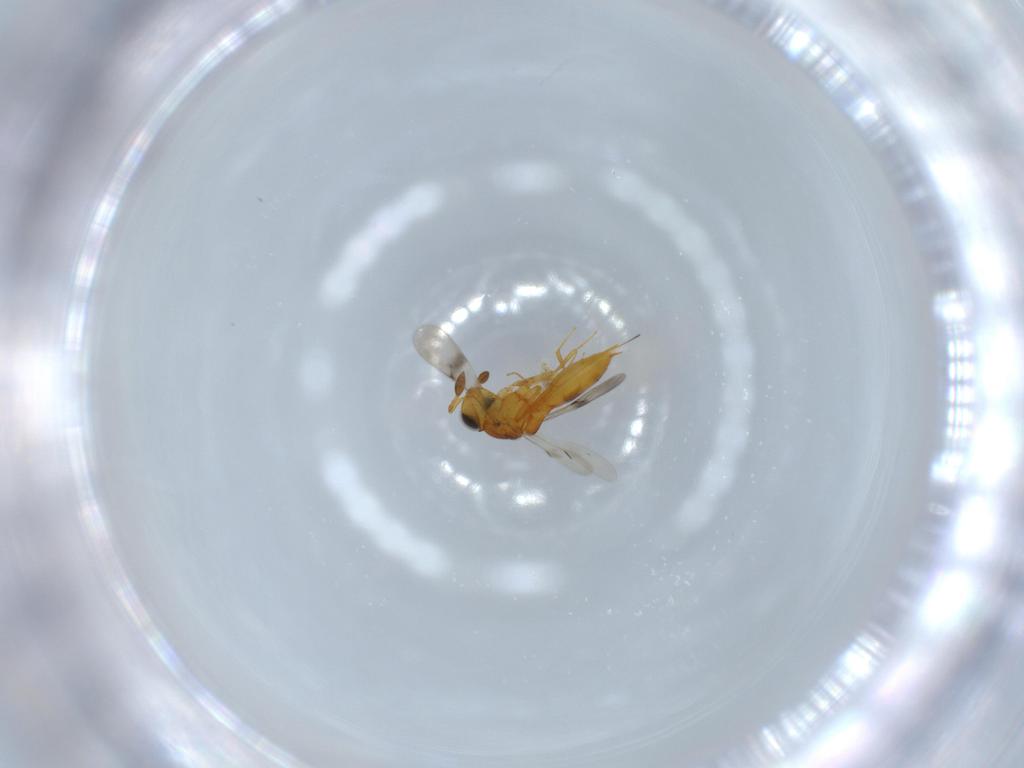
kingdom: Animalia
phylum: Arthropoda
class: Insecta
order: Hymenoptera
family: Scelionidae
